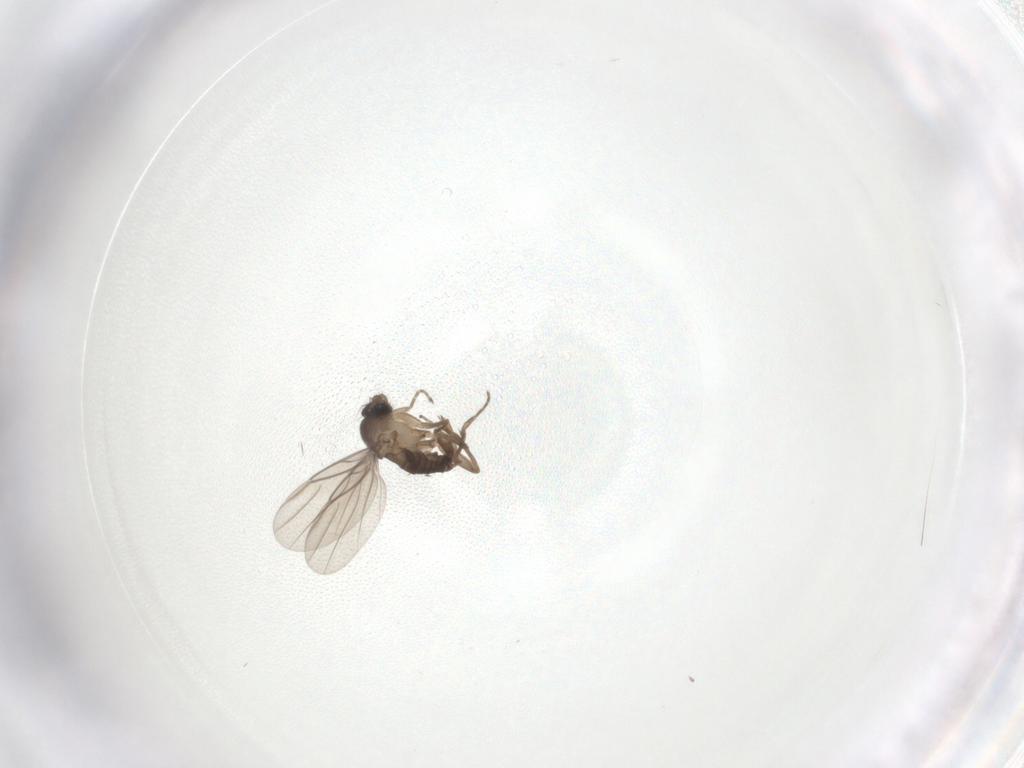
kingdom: Animalia
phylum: Arthropoda
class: Insecta
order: Diptera
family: Phoridae
